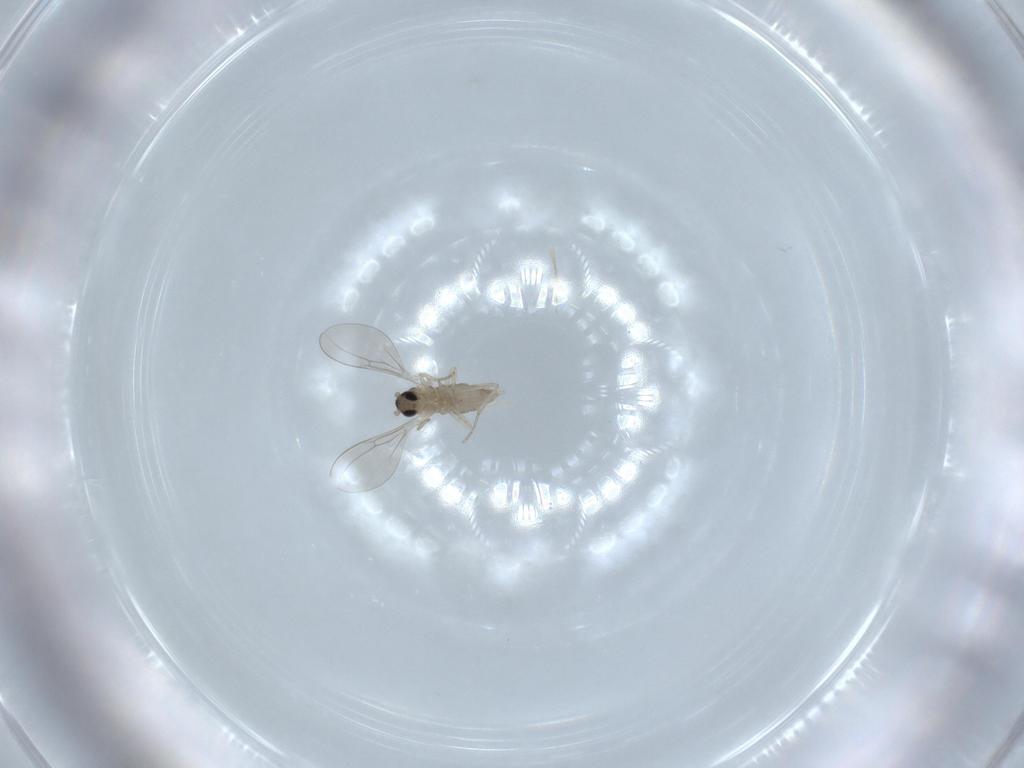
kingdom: Animalia
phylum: Arthropoda
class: Insecta
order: Diptera
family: Cecidomyiidae
